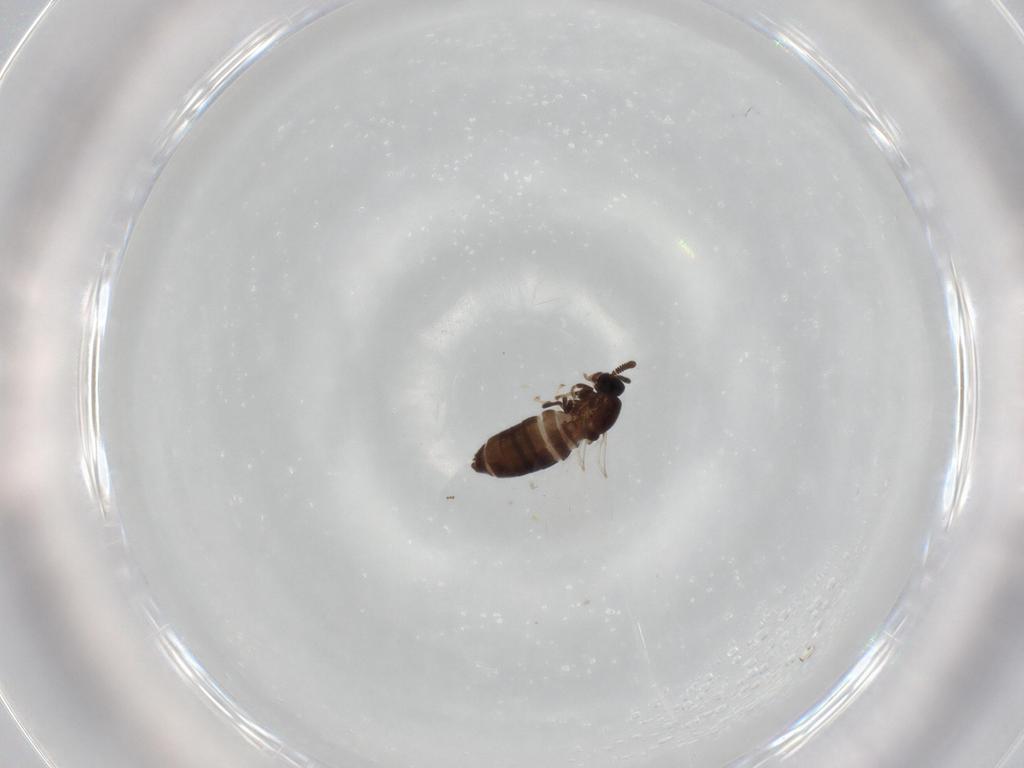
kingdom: Animalia
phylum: Arthropoda
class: Insecta
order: Diptera
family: Scatopsidae
